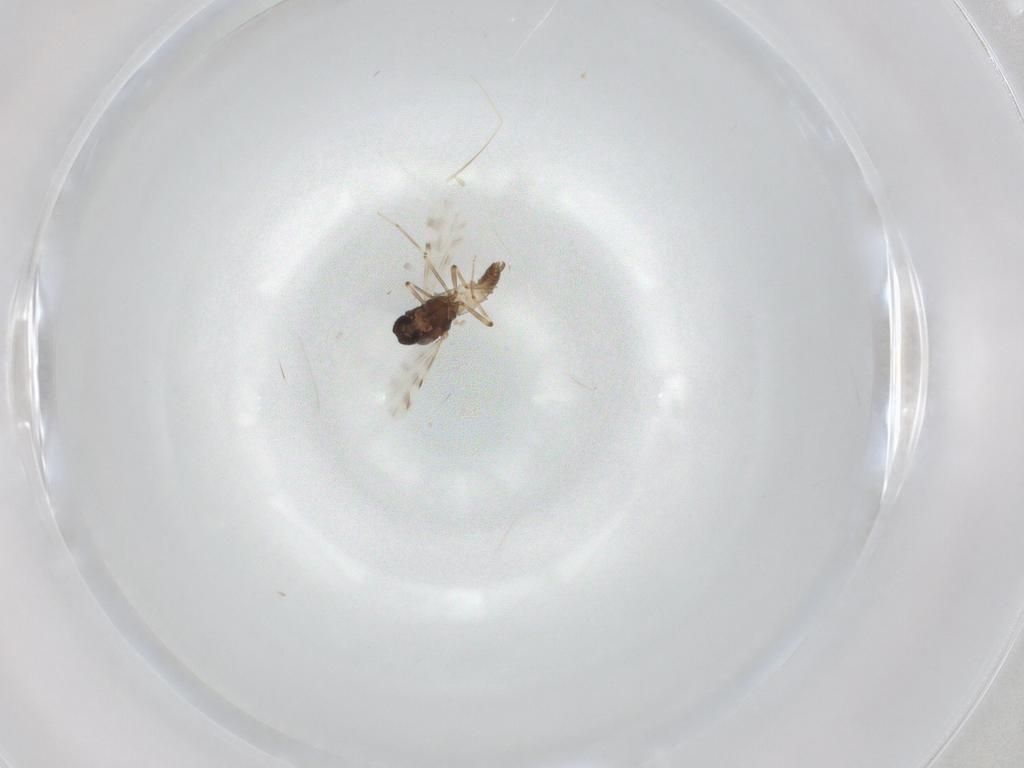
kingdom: Animalia
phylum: Arthropoda
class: Insecta
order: Diptera
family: Ceratopogonidae
